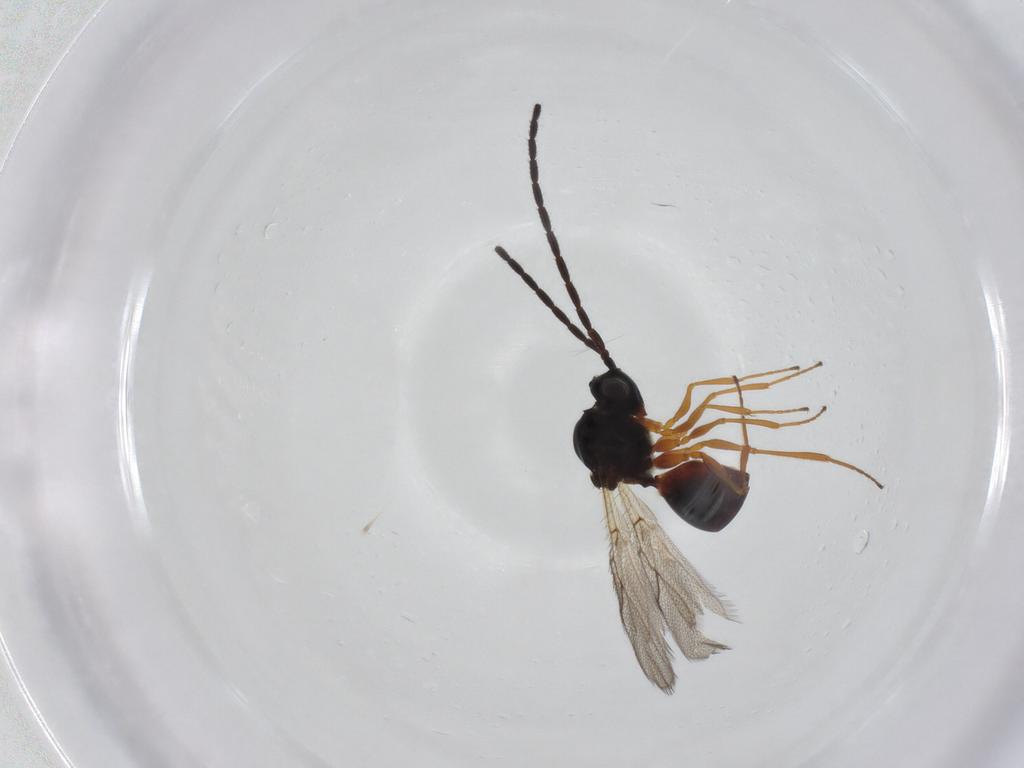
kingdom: Animalia
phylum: Arthropoda
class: Insecta
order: Hymenoptera
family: Figitidae
